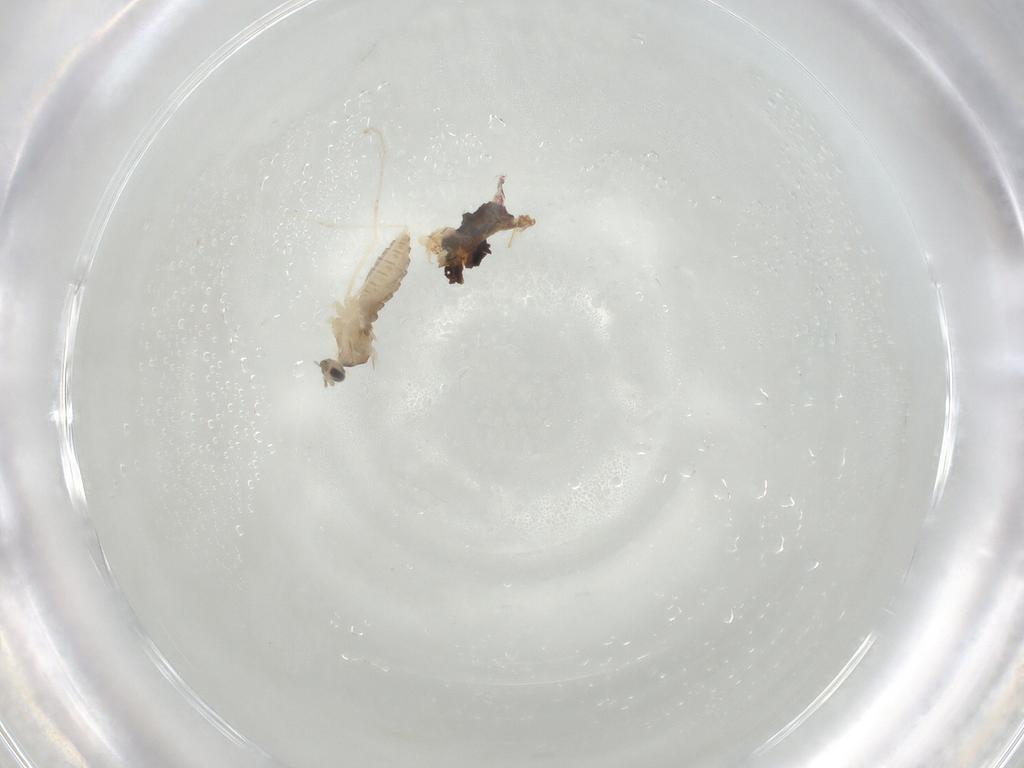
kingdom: Animalia
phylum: Arthropoda
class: Insecta
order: Diptera
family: Cecidomyiidae
